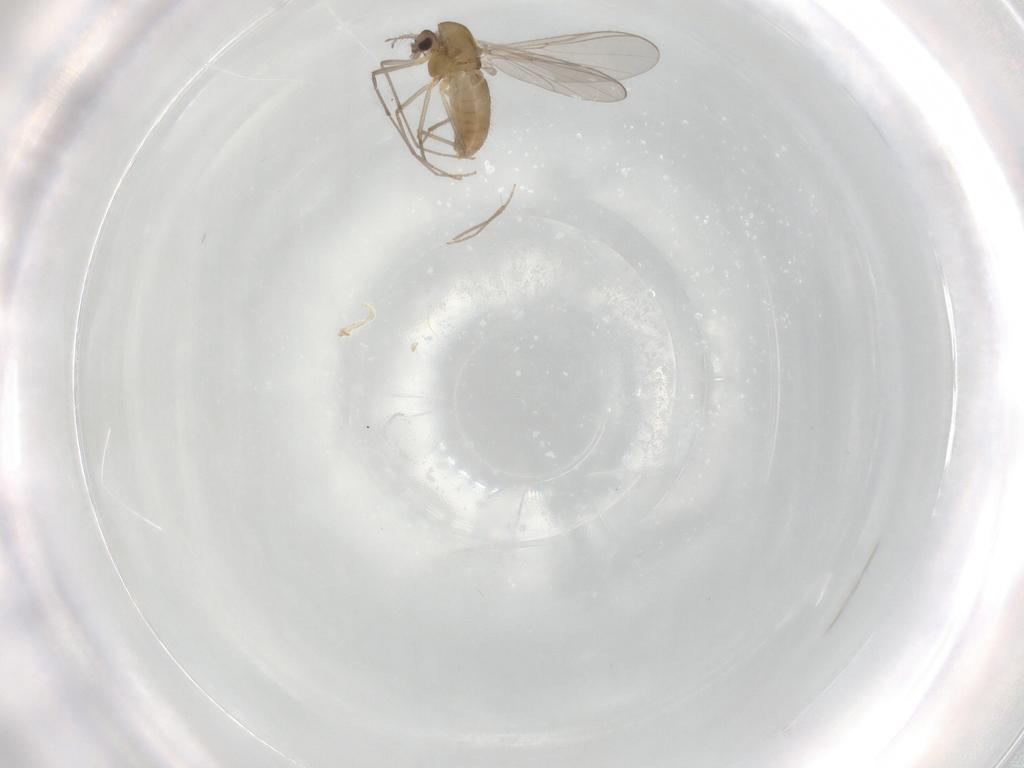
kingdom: Animalia
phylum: Arthropoda
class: Insecta
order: Diptera
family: Chironomidae
